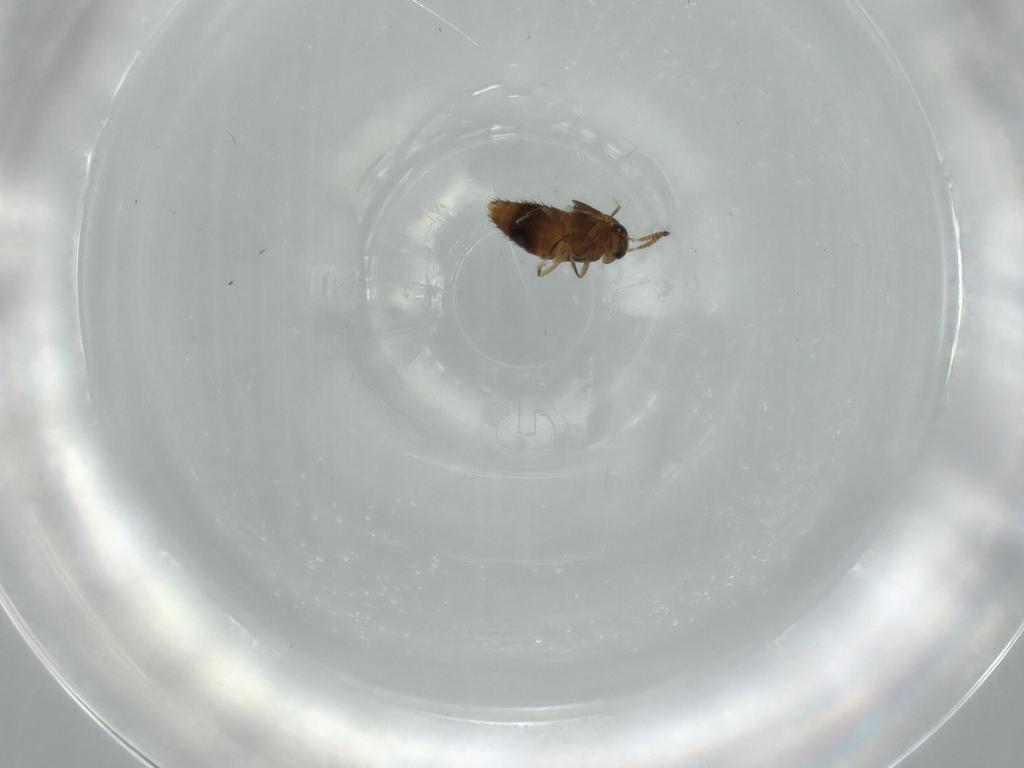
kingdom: Animalia
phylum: Arthropoda
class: Insecta
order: Coleoptera
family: Staphylinidae
